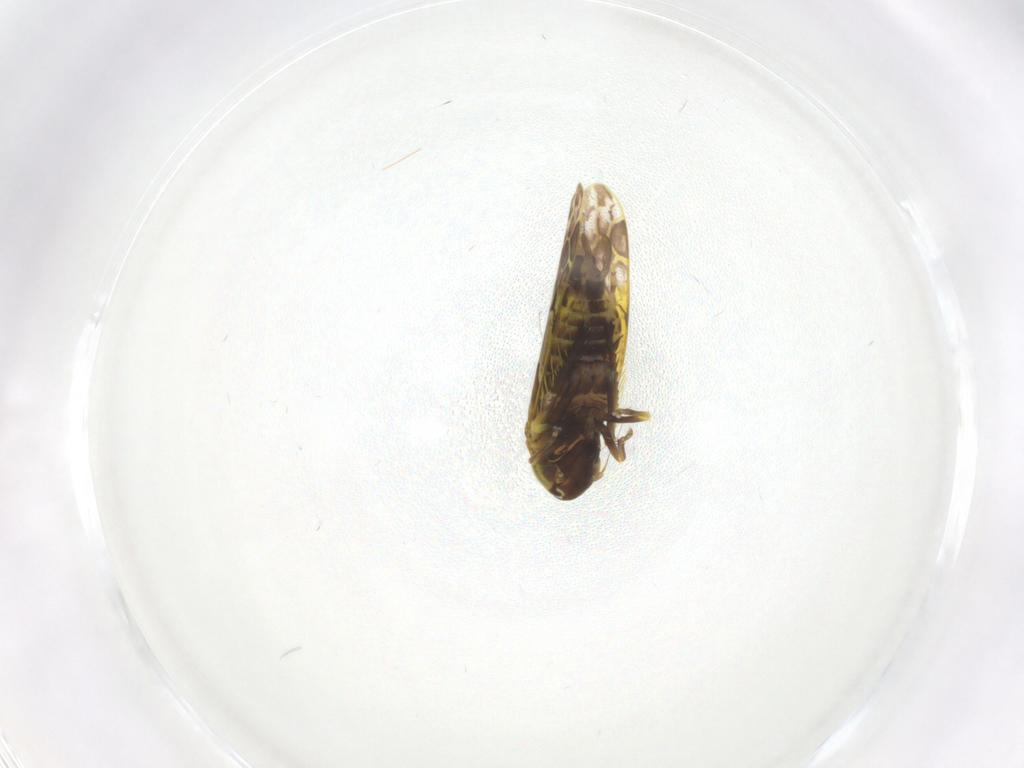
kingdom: Animalia
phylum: Arthropoda
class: Insecta
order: Hemiptera
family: Cicadellidae
